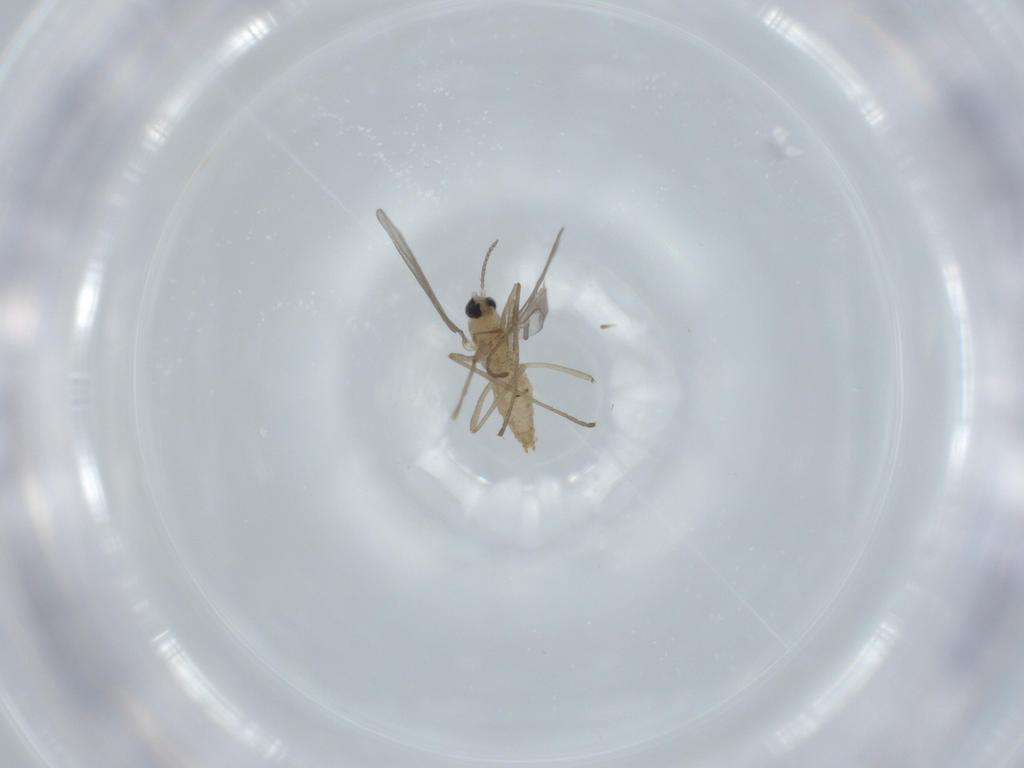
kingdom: Animalia
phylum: Arthropoda
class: Insecta
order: Diptera
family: Cecidomyiidae
